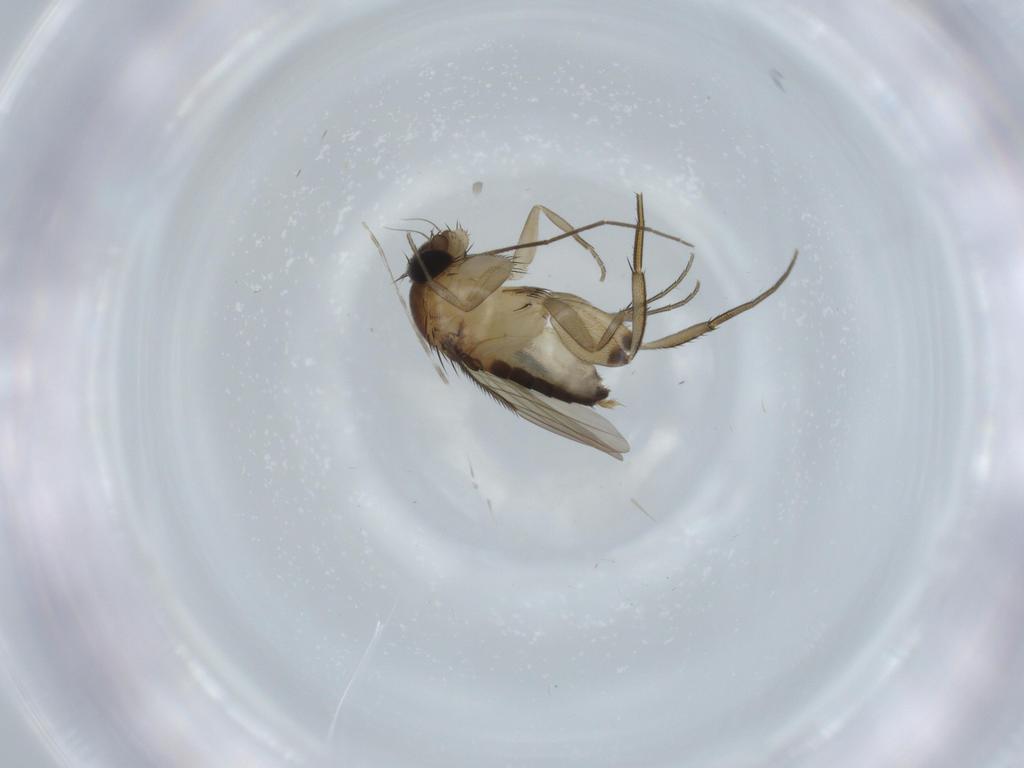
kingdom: Animalia
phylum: Arthropoda
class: Insecta
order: Diptera
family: Phoridae
